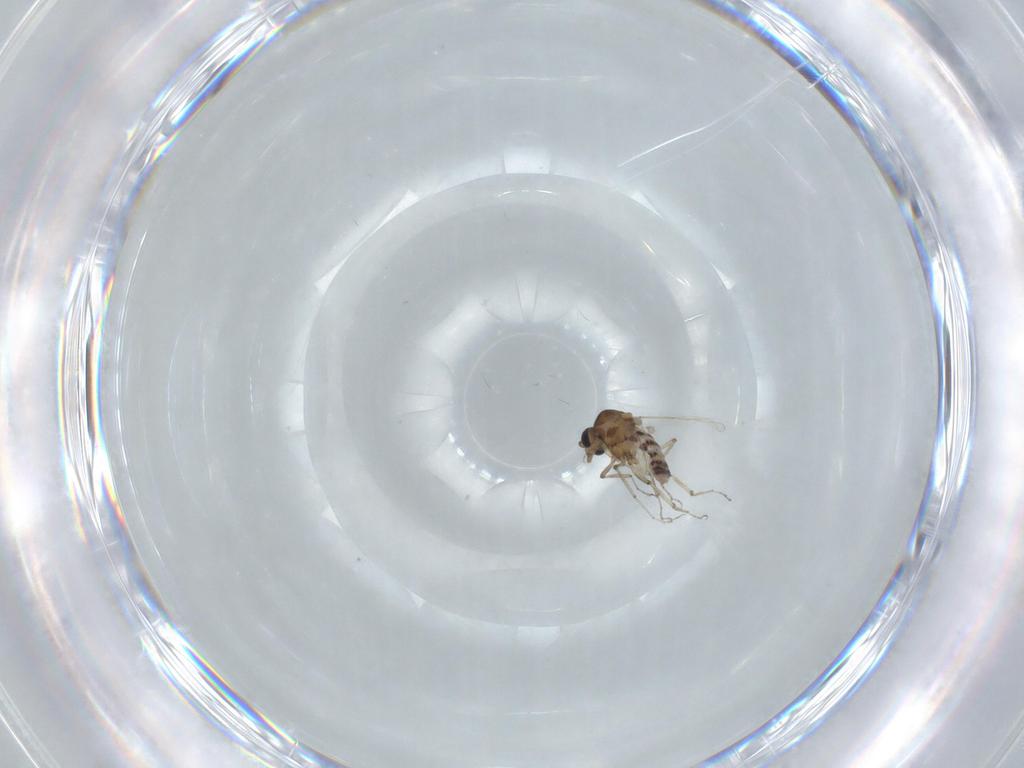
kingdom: Animalia
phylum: Arthropoda
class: Insecta
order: Diptera
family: Sciaridae
